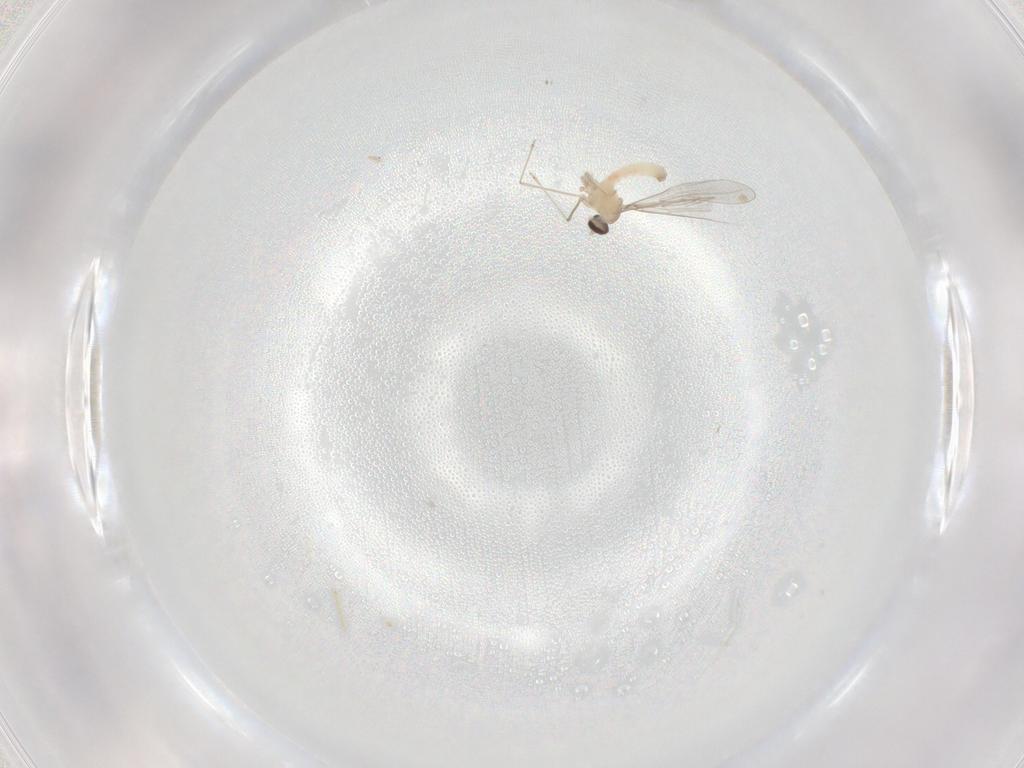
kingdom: Animalia
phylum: Arthropoda
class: Insecta
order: Diptera
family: Cecidomyiidae
